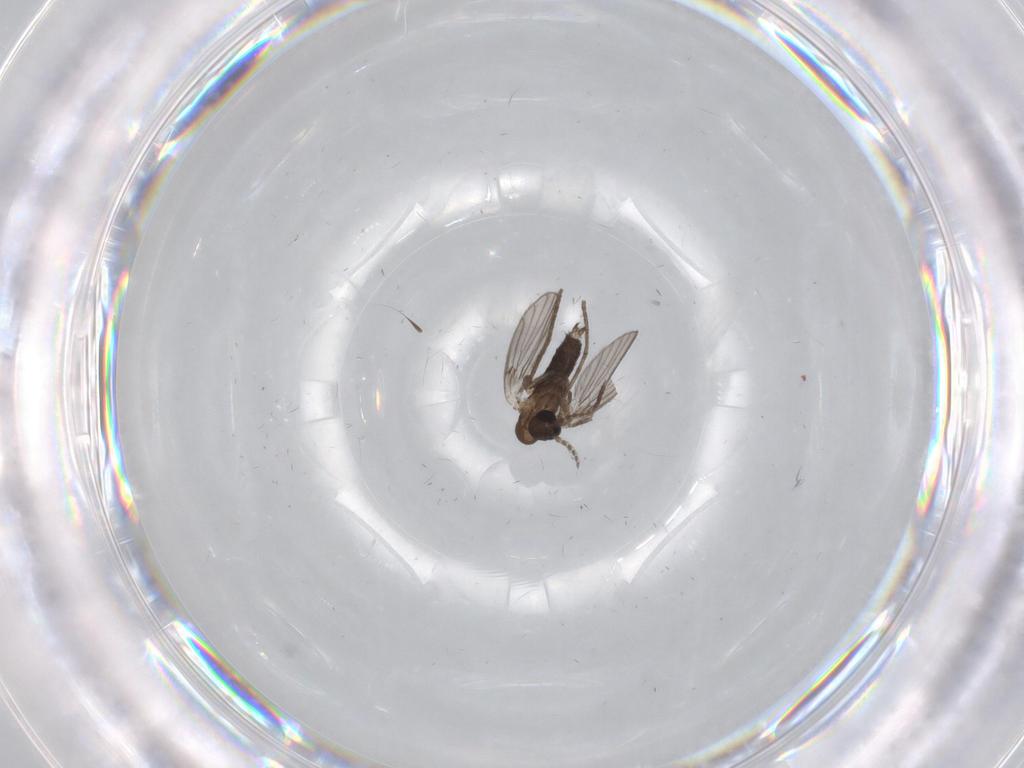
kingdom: Animalia
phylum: Arthropoda
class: Insecta
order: Diptera
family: Cecidomyiidae
